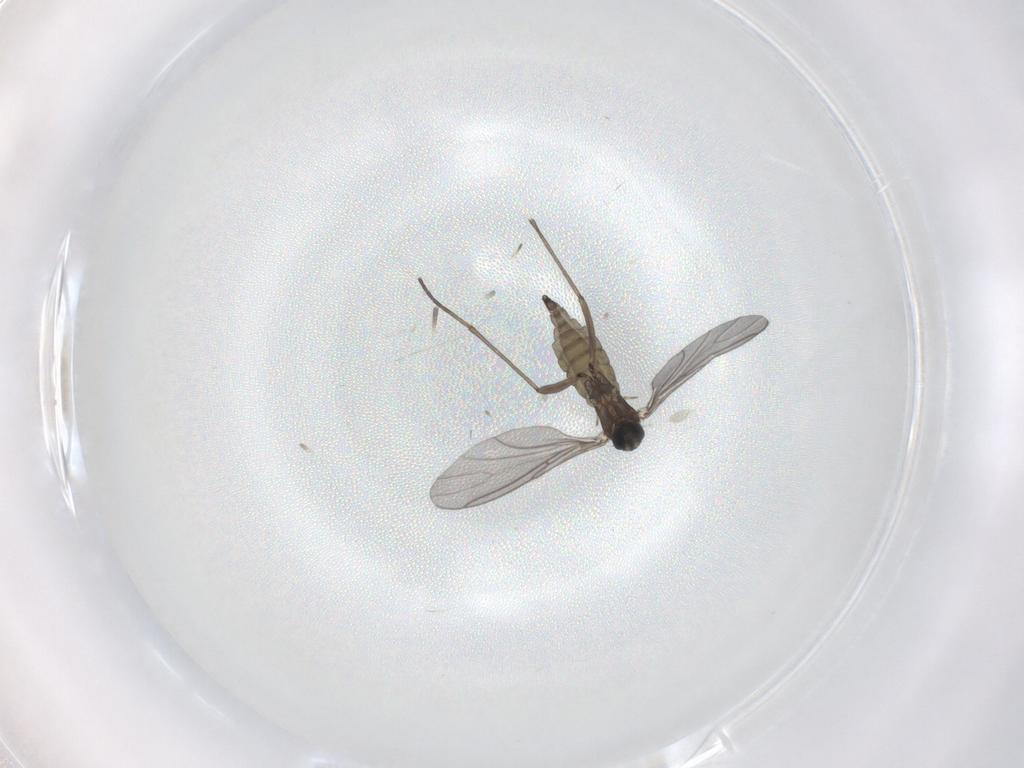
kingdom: Animalia
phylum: Arthropoda
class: Insecta
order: Diptera
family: Sciaridae
